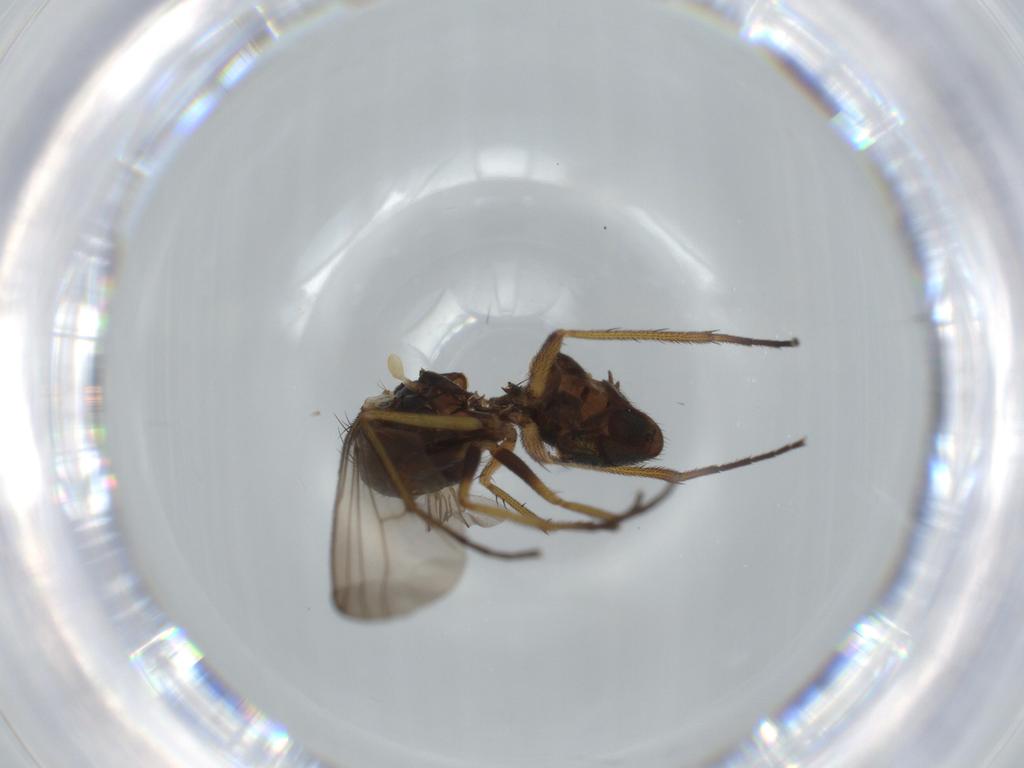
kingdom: Animalia
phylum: Arthropoda
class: Insecta
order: Diptera
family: Dolichopodidae
